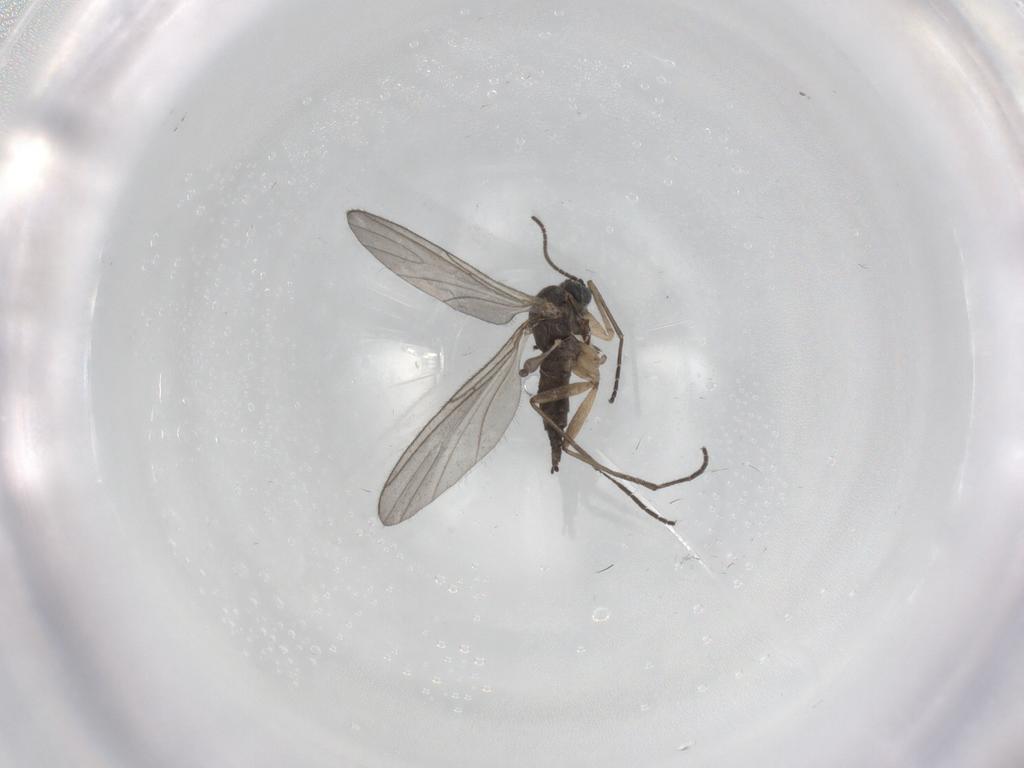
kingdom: Animalia
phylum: Arthropoda
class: Insecta
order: Diptera
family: Sciaridae
